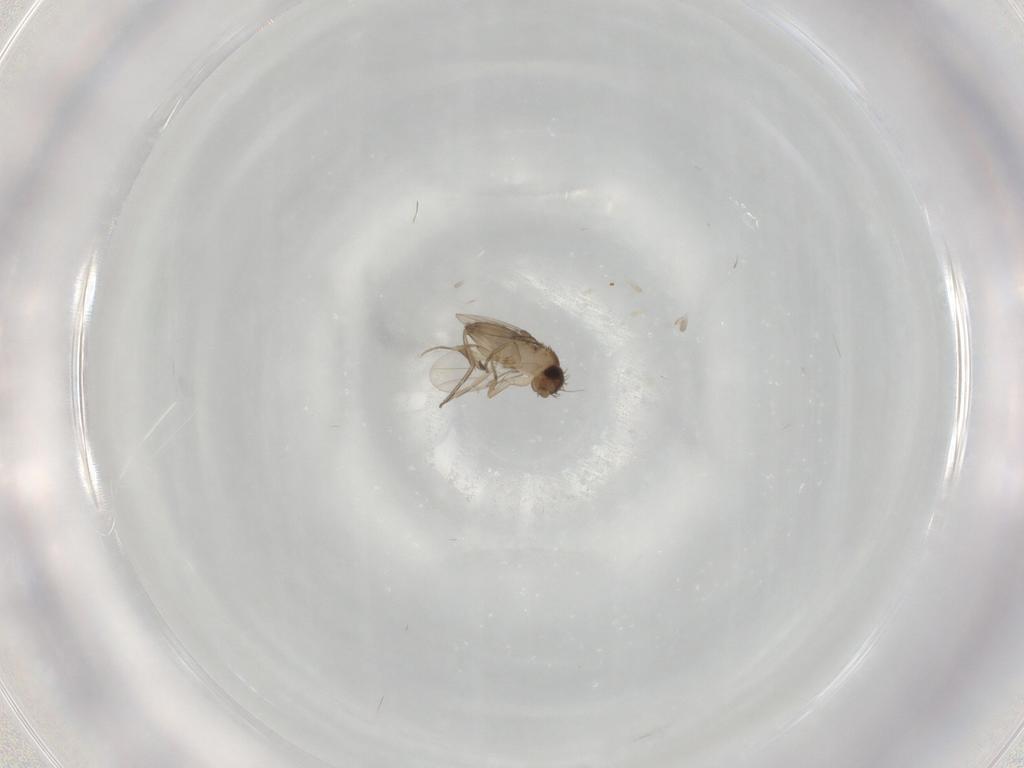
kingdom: Animalia
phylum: Arthropoda
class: Insecta
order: Diptera
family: Phoridae
